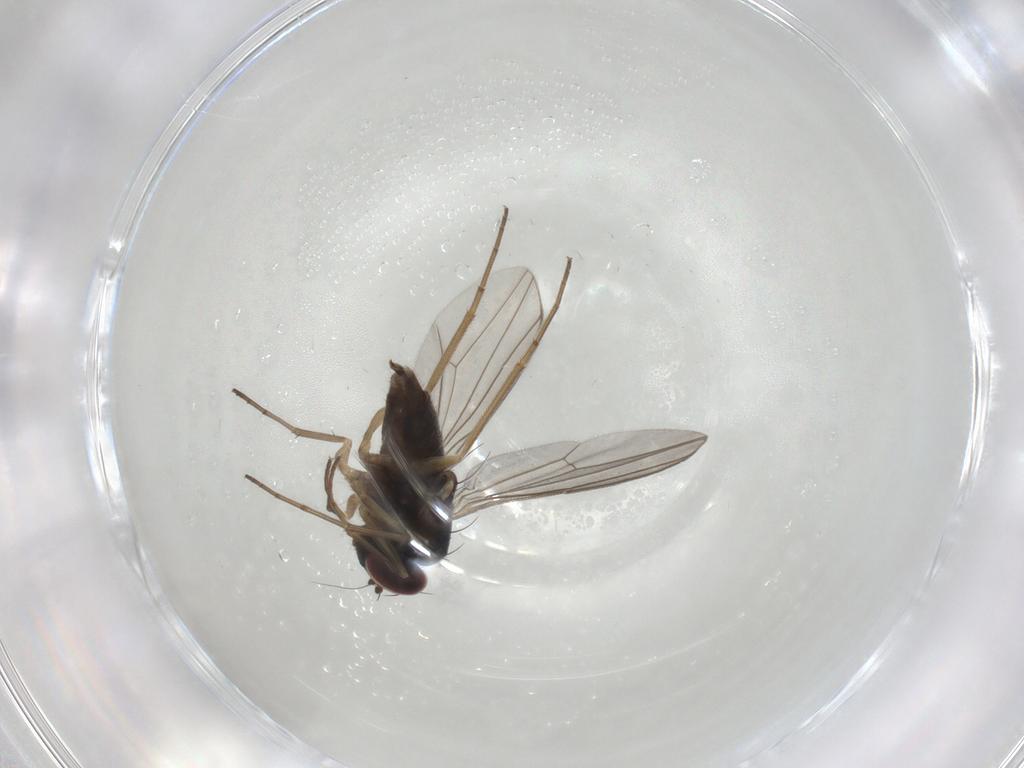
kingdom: Animalia
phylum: Arthropoda
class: Insecta
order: Diptera
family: Dolichopodidae
